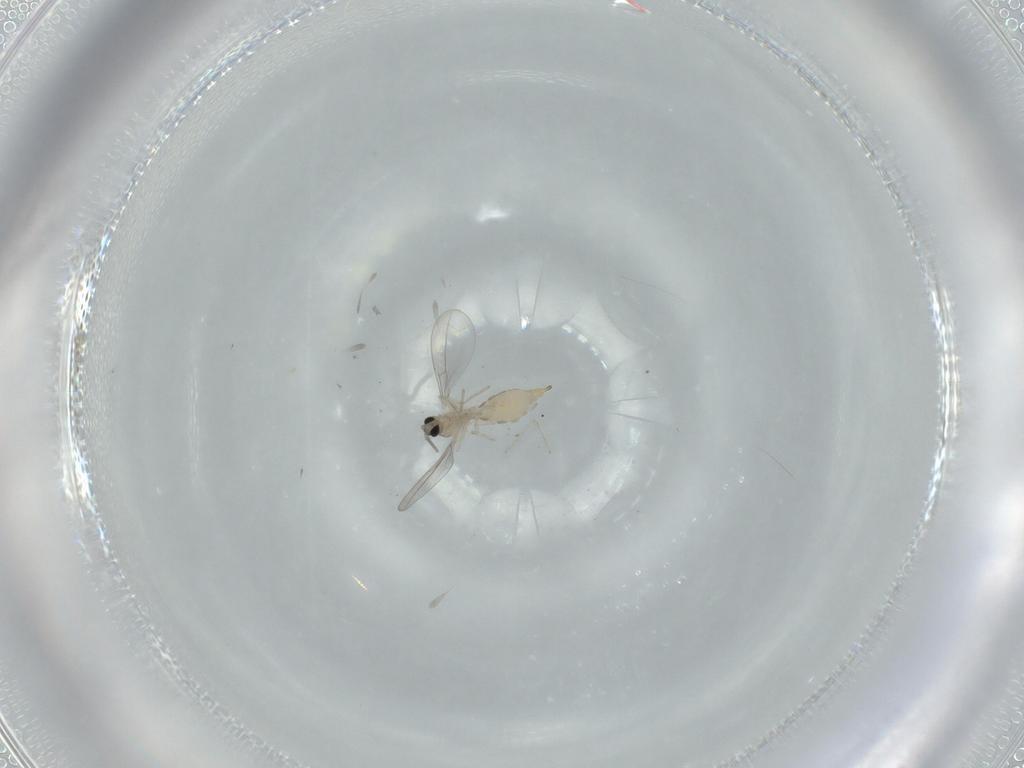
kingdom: Animalia
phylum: Arthropoda
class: Insecta
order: Diptera
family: Cecidomyiidae
